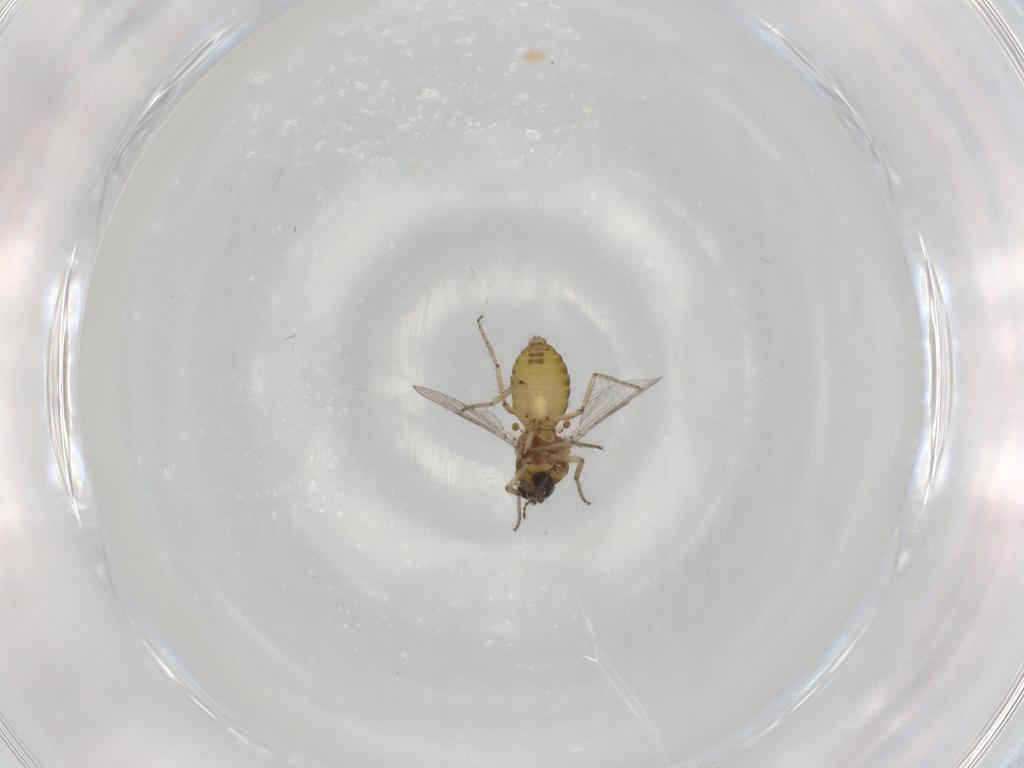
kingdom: Animalia
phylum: Arthropoda
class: Insecta
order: Diptera
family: Ceratopogonidae
